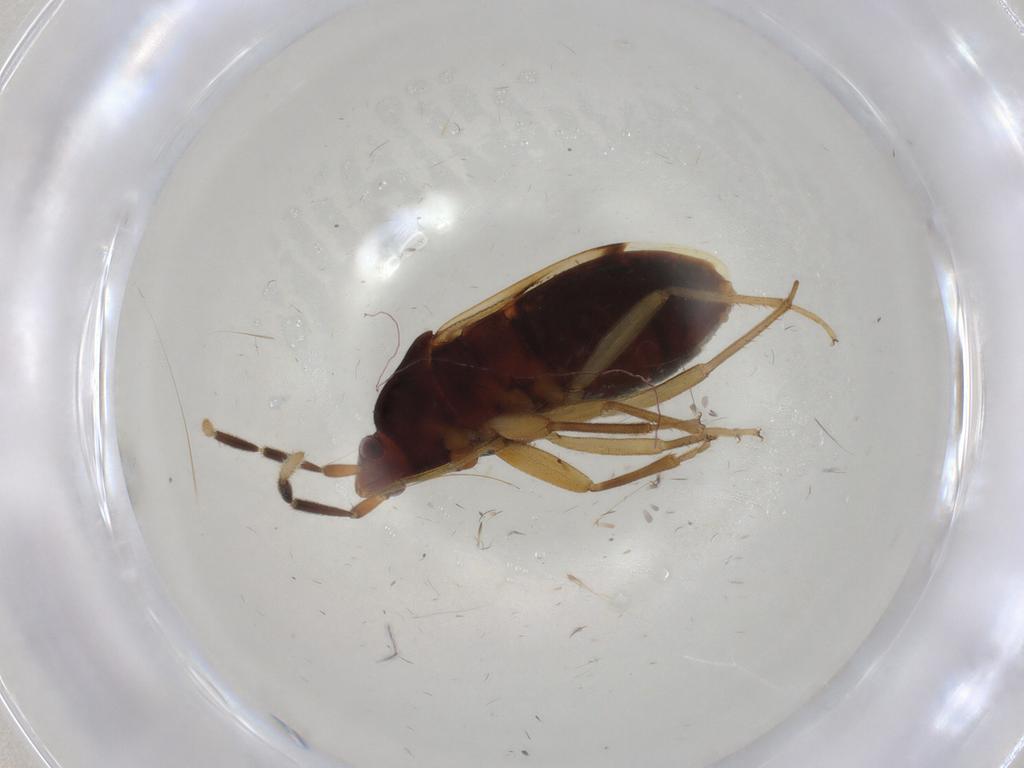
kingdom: Animalia
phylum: Arthropoda
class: Insecta
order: Hemiptera
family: Rhyparochromidae
